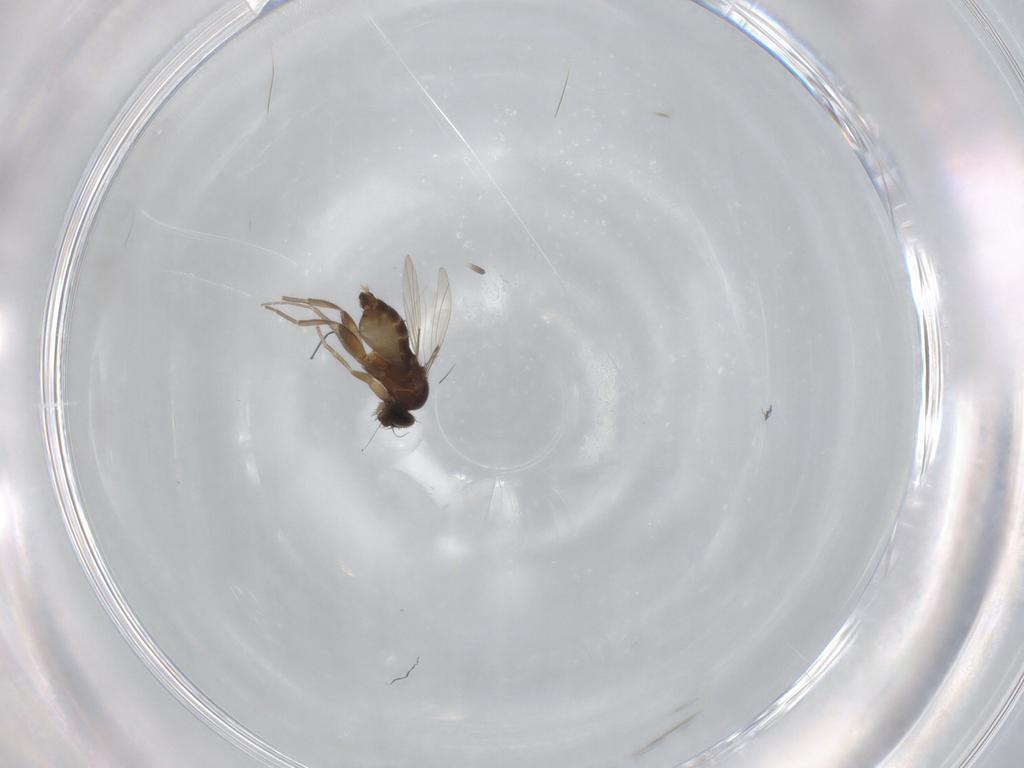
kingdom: Animalia
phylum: Arthropoda
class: Insecta
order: Diptera
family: Phoridae
